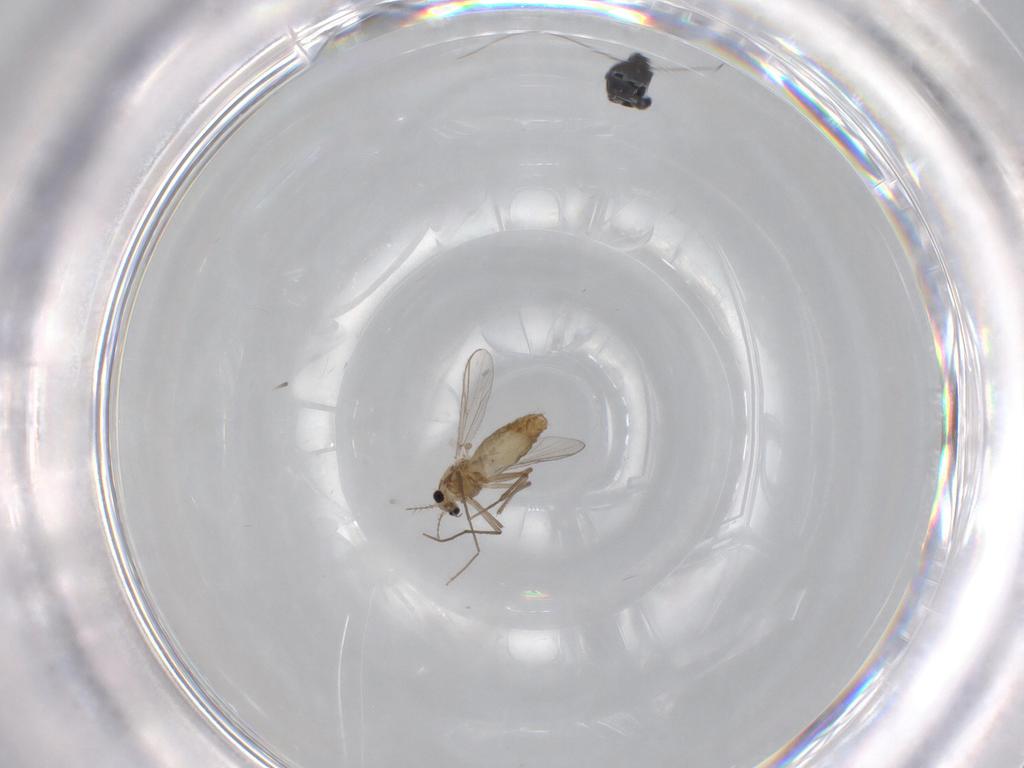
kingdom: Animalia
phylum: Arthropoda
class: Insecta
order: Diptera
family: Chironomidae
